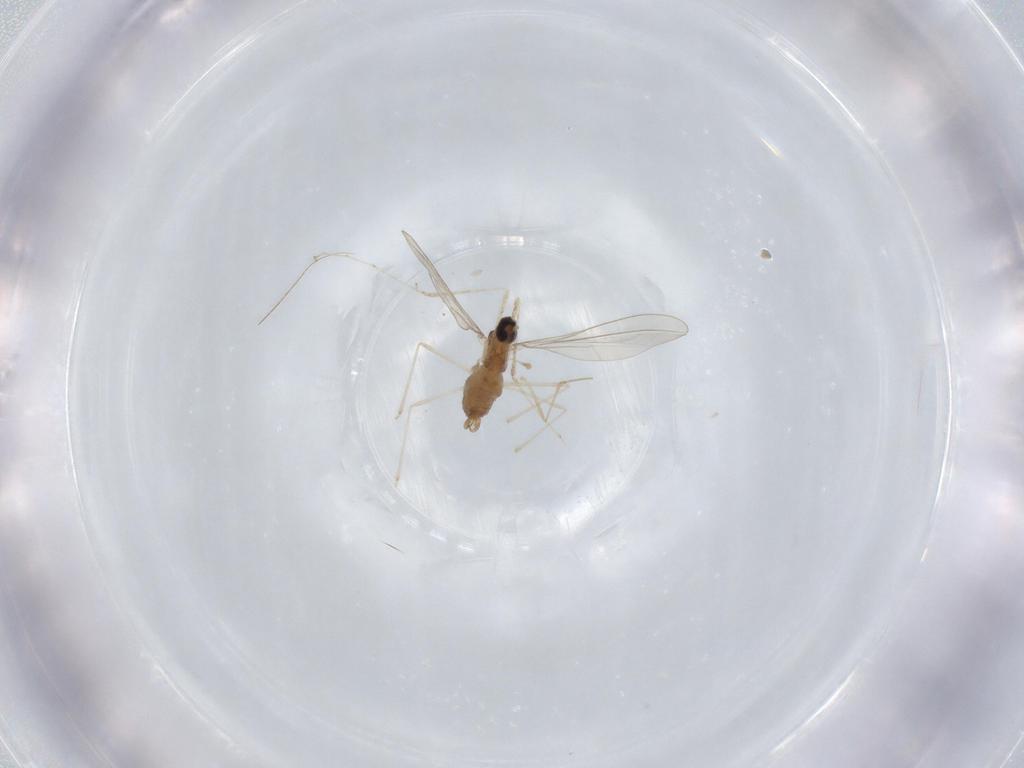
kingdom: Animalia
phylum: Arthropoda
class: Insecta
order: Diptera
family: Cecidomyiidae
